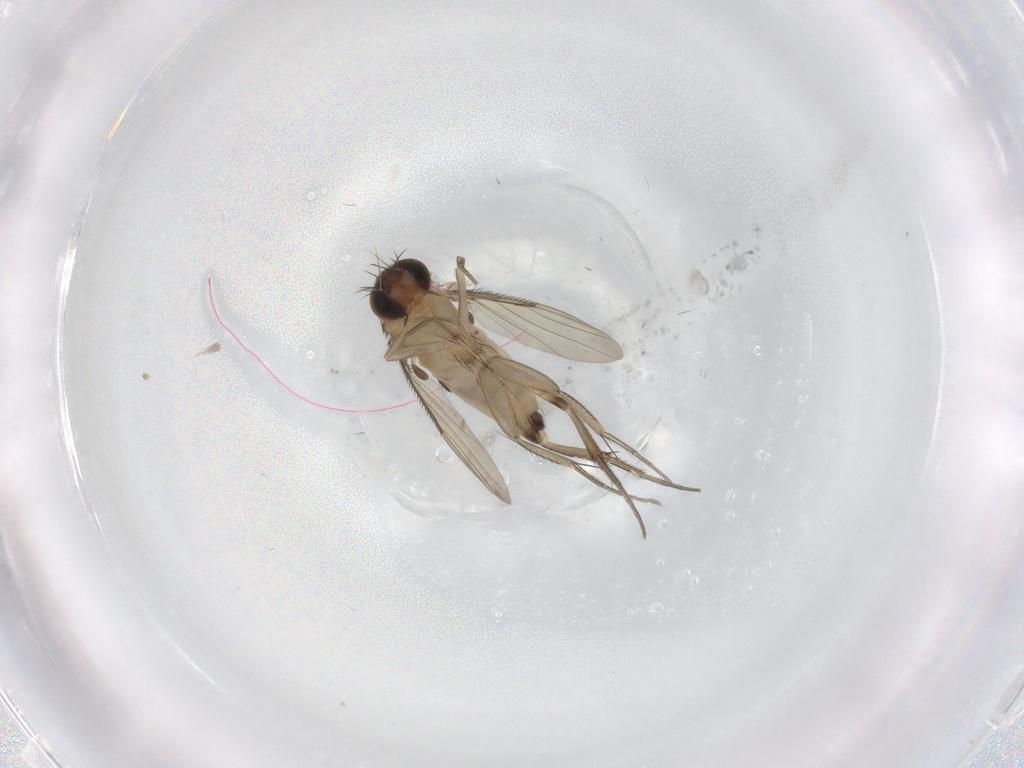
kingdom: Animalia
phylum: Arthropoda
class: Insecta
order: Diptera
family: Phoridae
